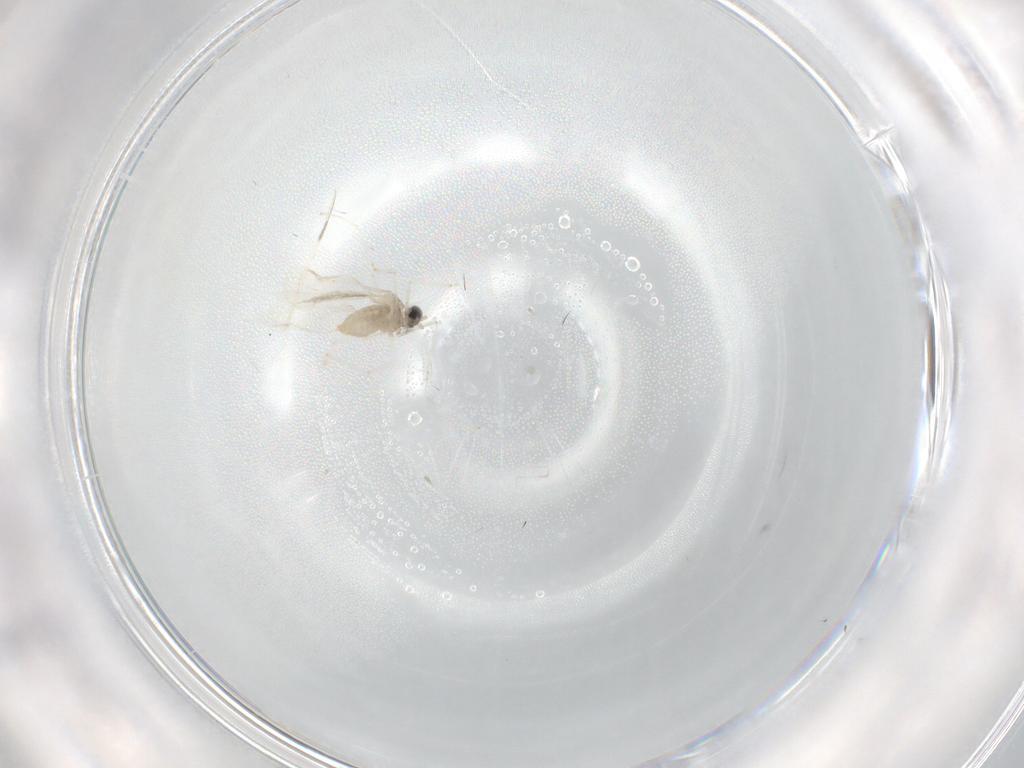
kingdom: Animalia
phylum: Arthropoda
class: Insecta
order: Diptera
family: Cecidomyiidae
